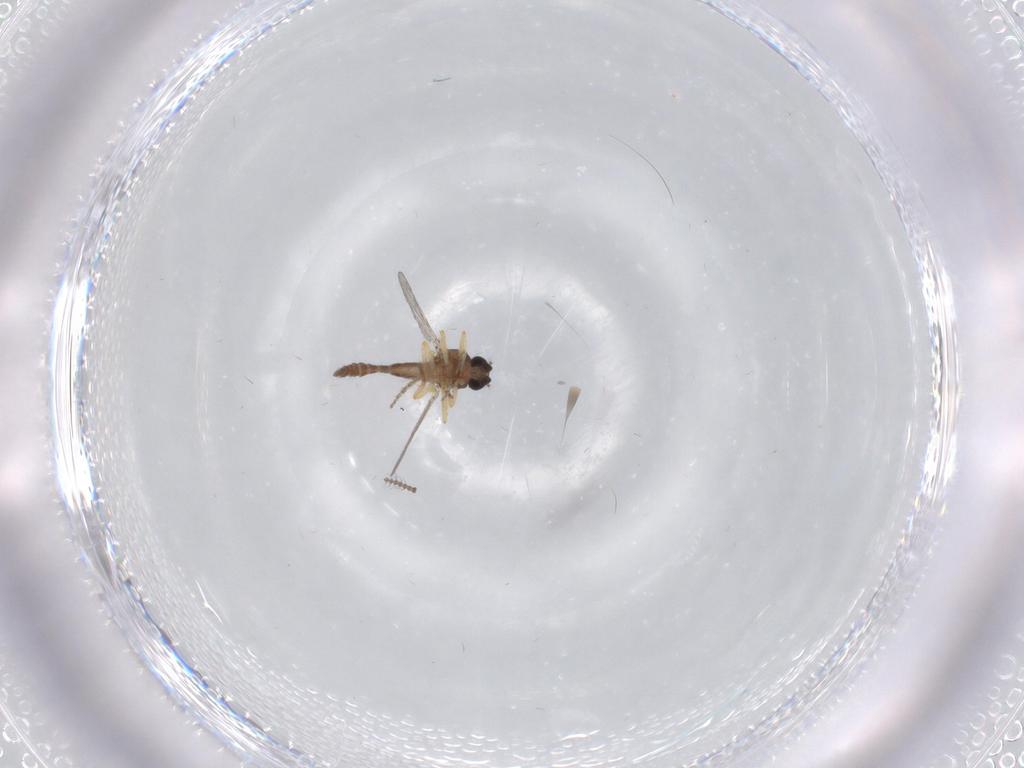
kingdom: Animalia
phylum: Arthropoda
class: Insecta
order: Diptera
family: Ceratopogonidae
